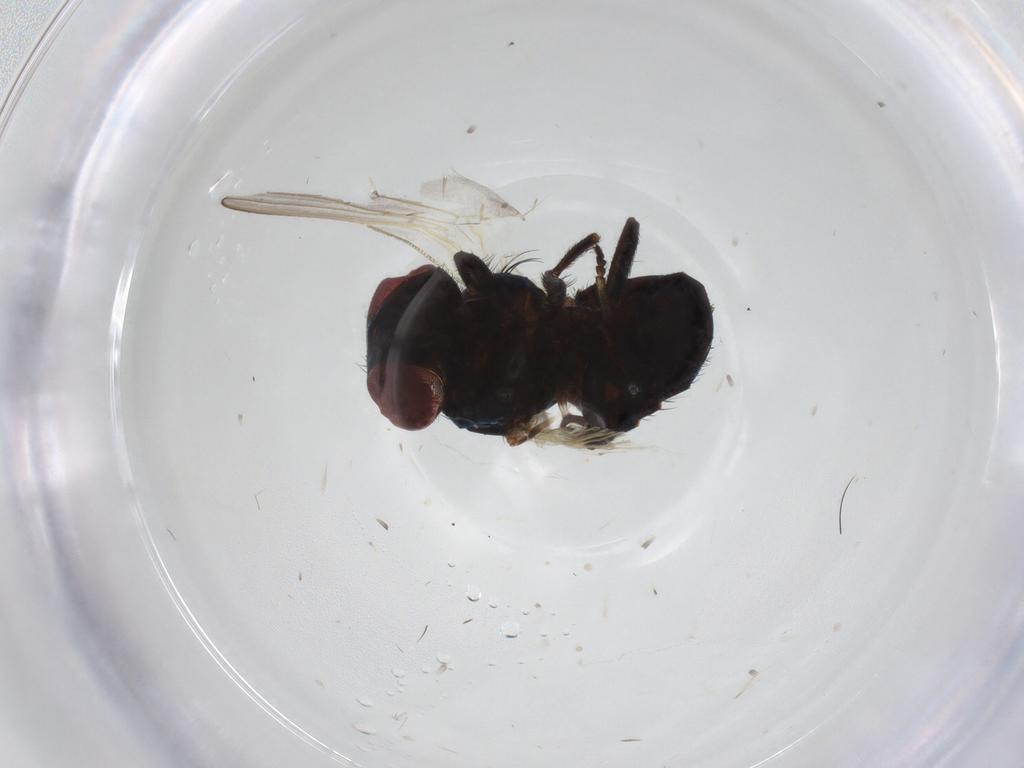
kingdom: Animalia
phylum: Arthropoda
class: Insecta
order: Diptera
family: Lonchaeidae
